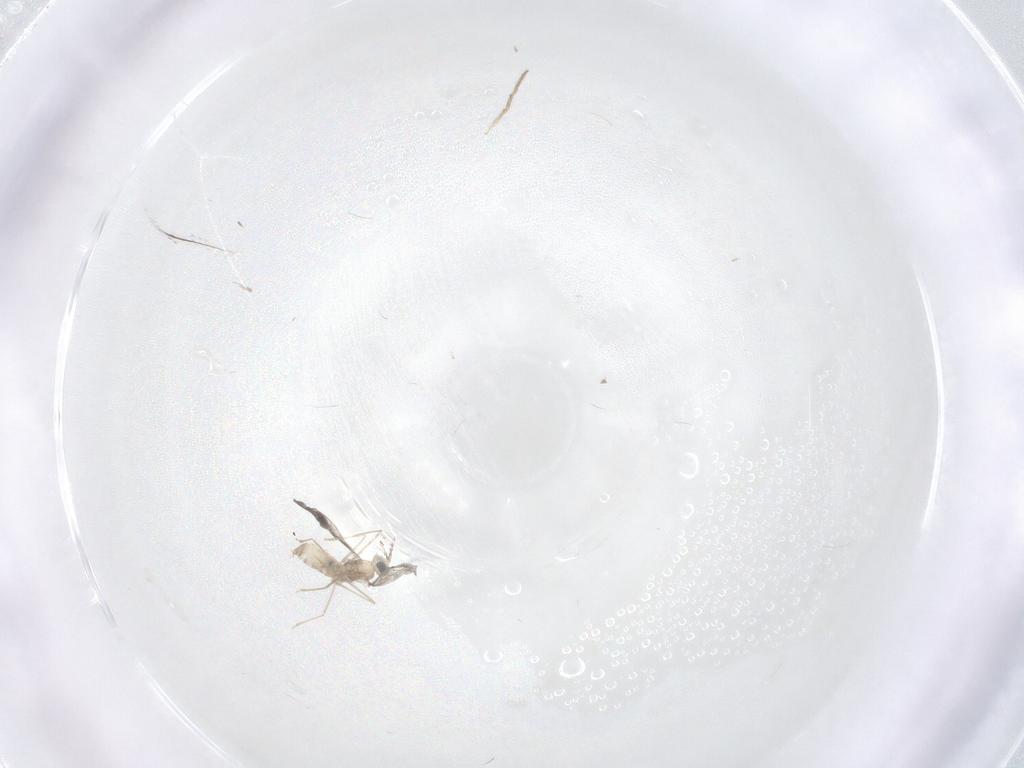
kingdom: Animalia
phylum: Arthropoda
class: Insecta
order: Diptera
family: Cecidomyiidae
